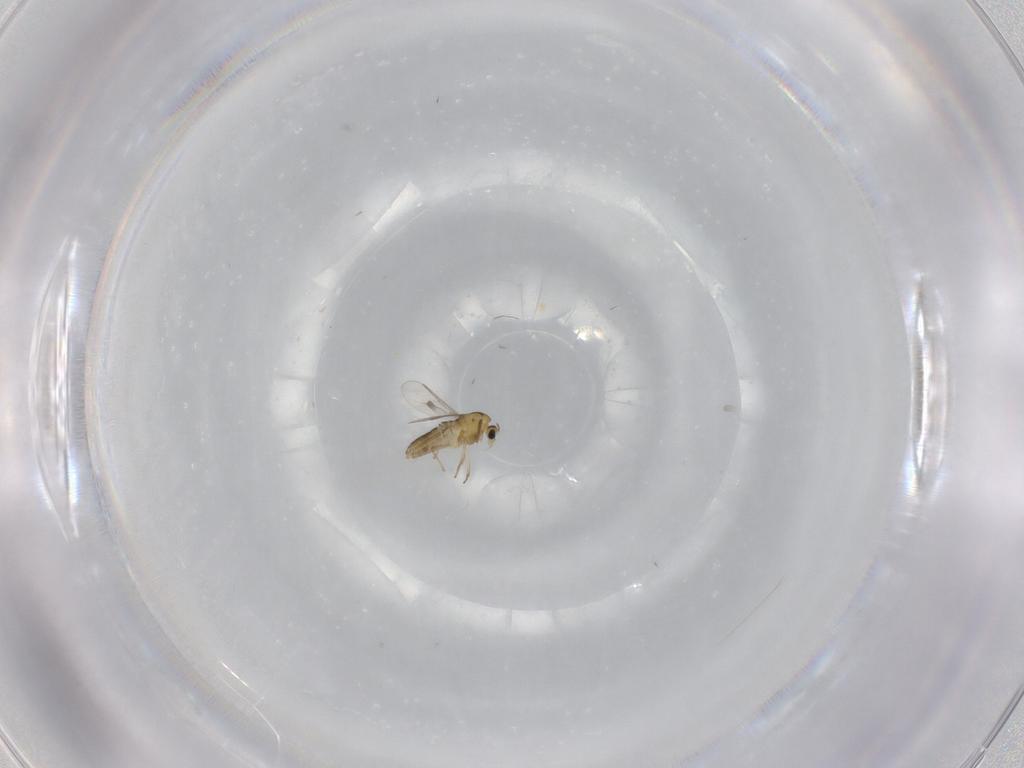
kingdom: Animalia
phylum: Arthropoda
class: Insecta
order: Diptera
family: Chironomidae
